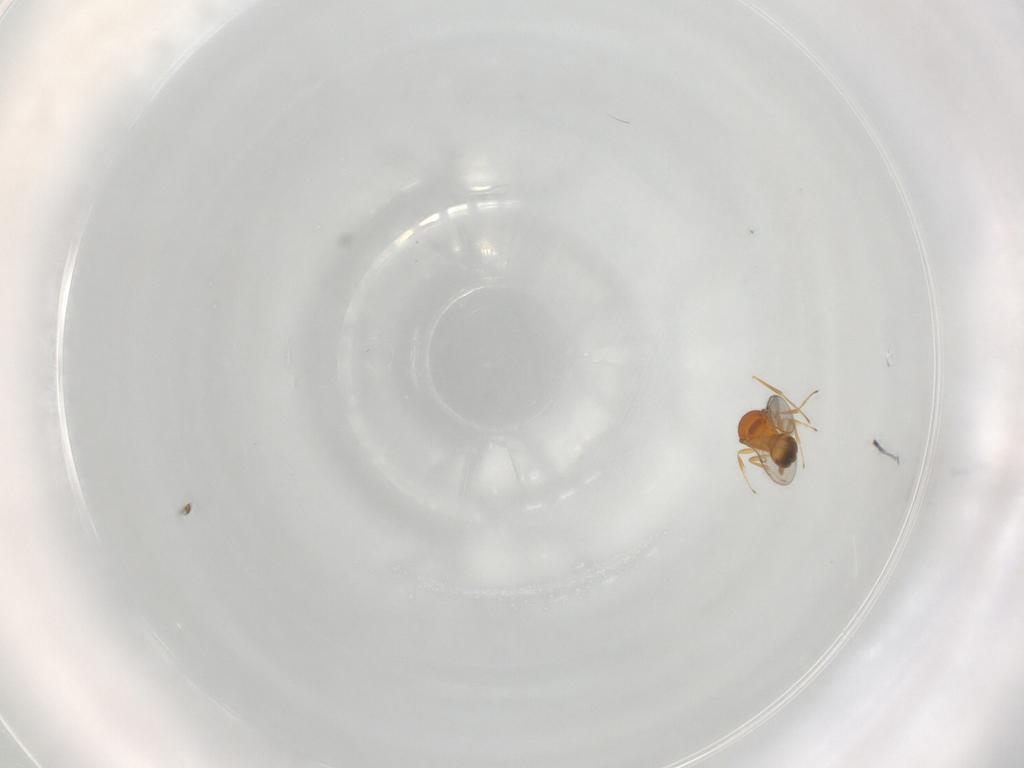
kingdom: Animalia
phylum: Arthropoda
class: Insecta
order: Hymenoptera
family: Scelionidae
